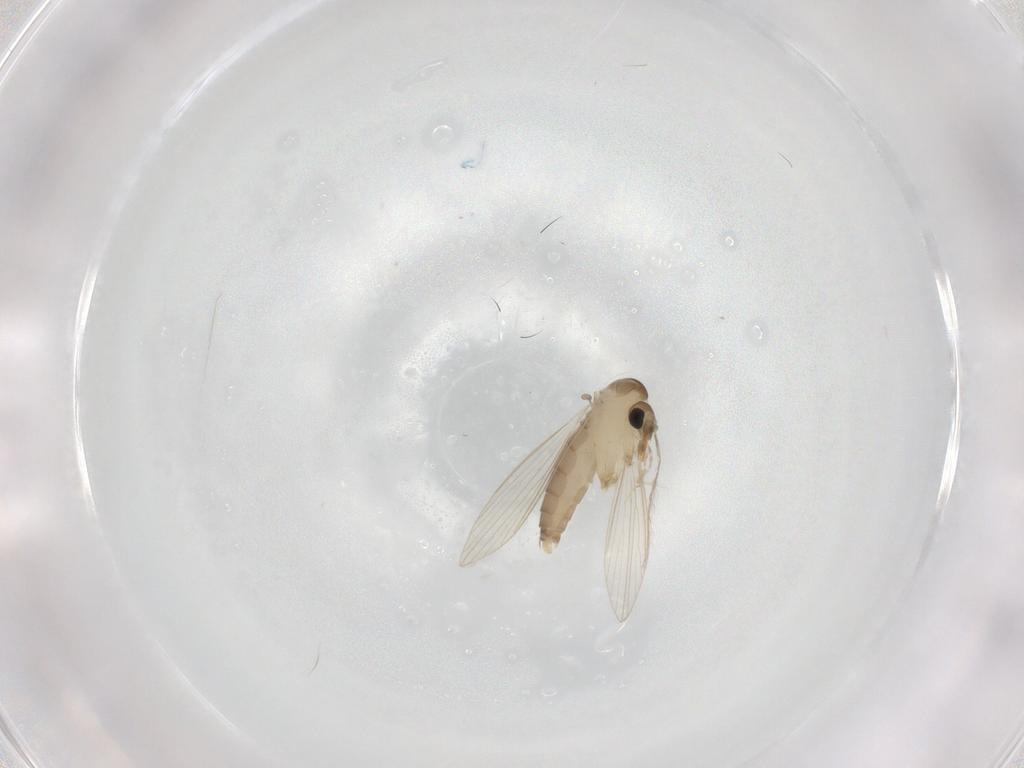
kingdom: Animalia
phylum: Arthropoda
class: Insecta
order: Diptera
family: Psychodidae
